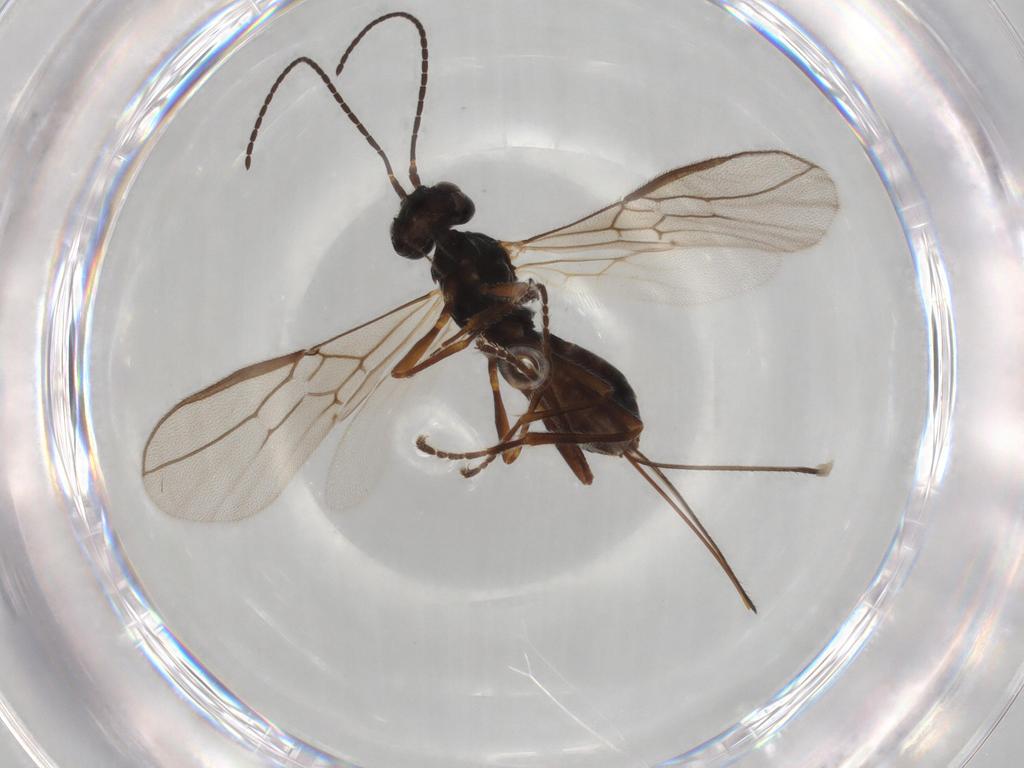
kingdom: Animalia
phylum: Arthropoda
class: Insecta
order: Hymenoptera
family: Braconidae
